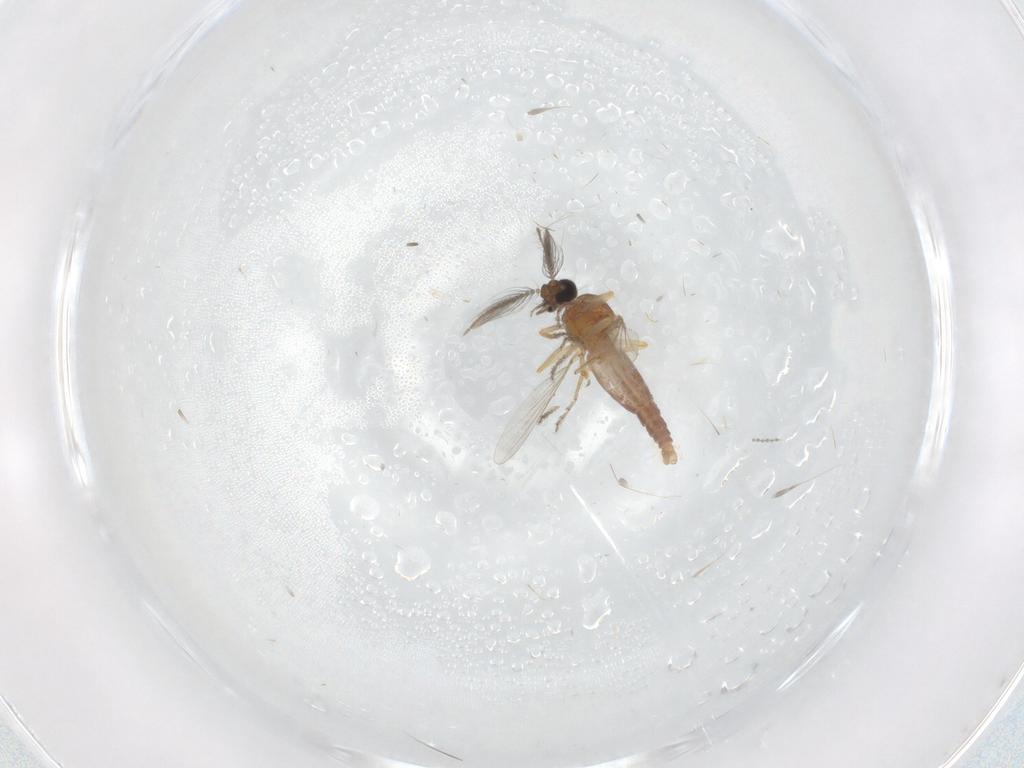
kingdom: Animalia
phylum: Arthropoda
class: Insecta
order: Diptera
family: Ceratopogonidae
